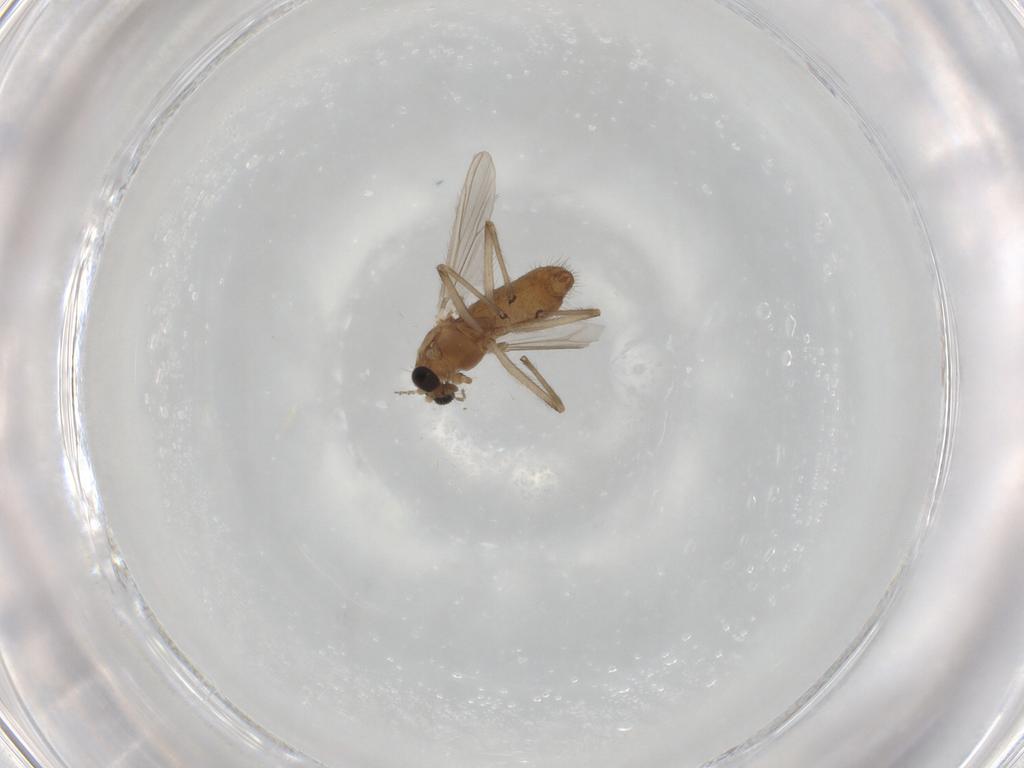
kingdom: Animalia
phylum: Arthropoda
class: Insecta
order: Diptera
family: Chironomidae
